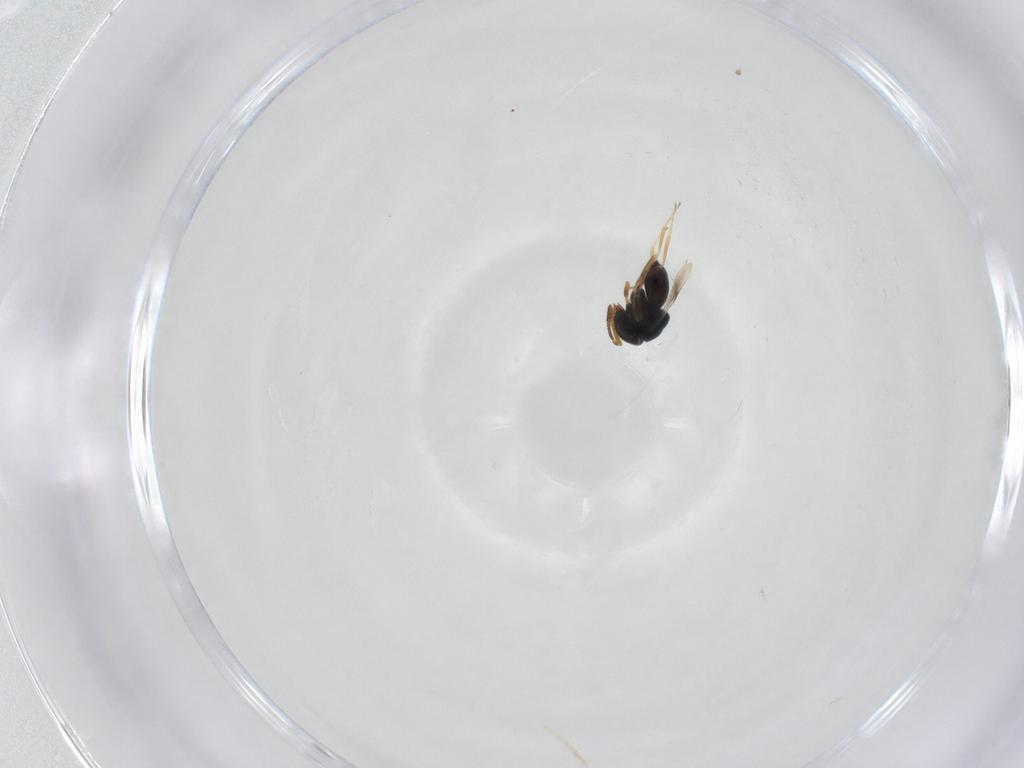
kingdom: Animalia
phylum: Arthropoda
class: Insecta
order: Hymenoptera
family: Scelionidae
